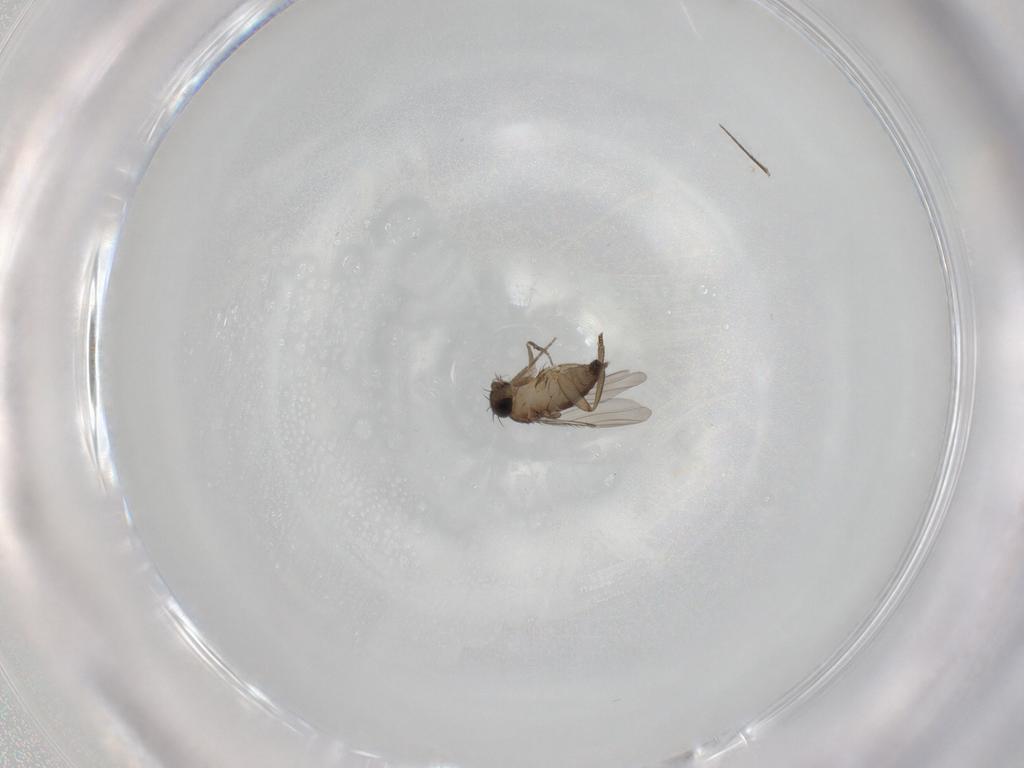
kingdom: Animalia
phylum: Arthropoda
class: Insecta
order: Diptera
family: Phoridae
